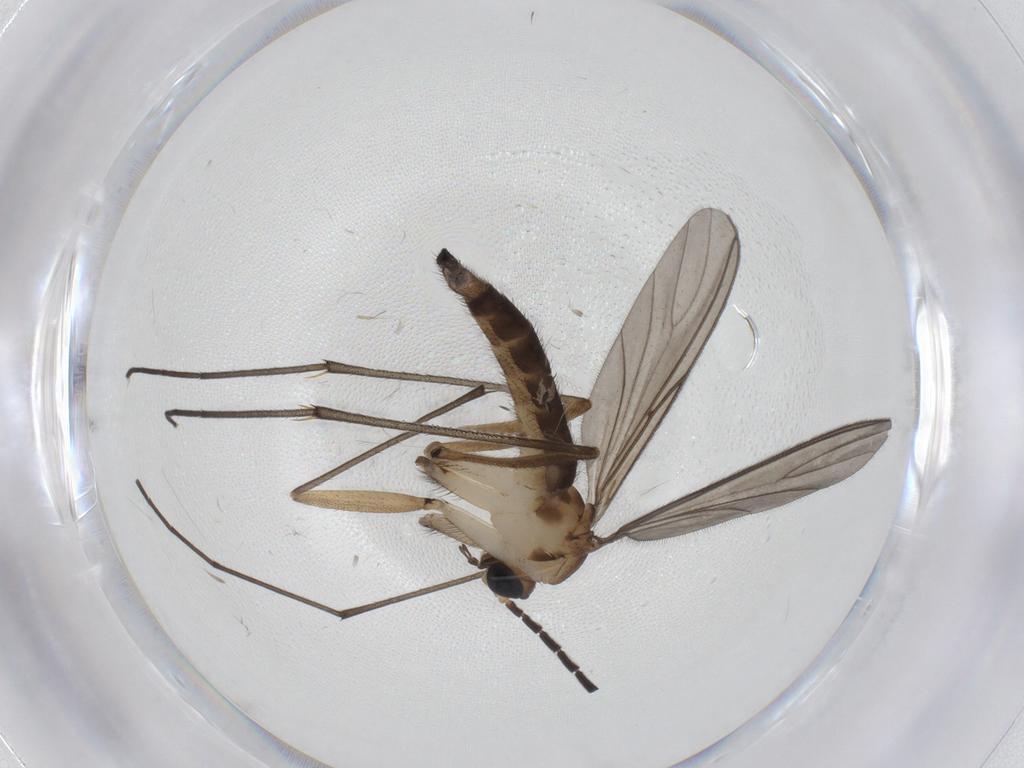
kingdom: Animalia
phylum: Arthropoda
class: Insecta
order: Diptera
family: Sciaridae
